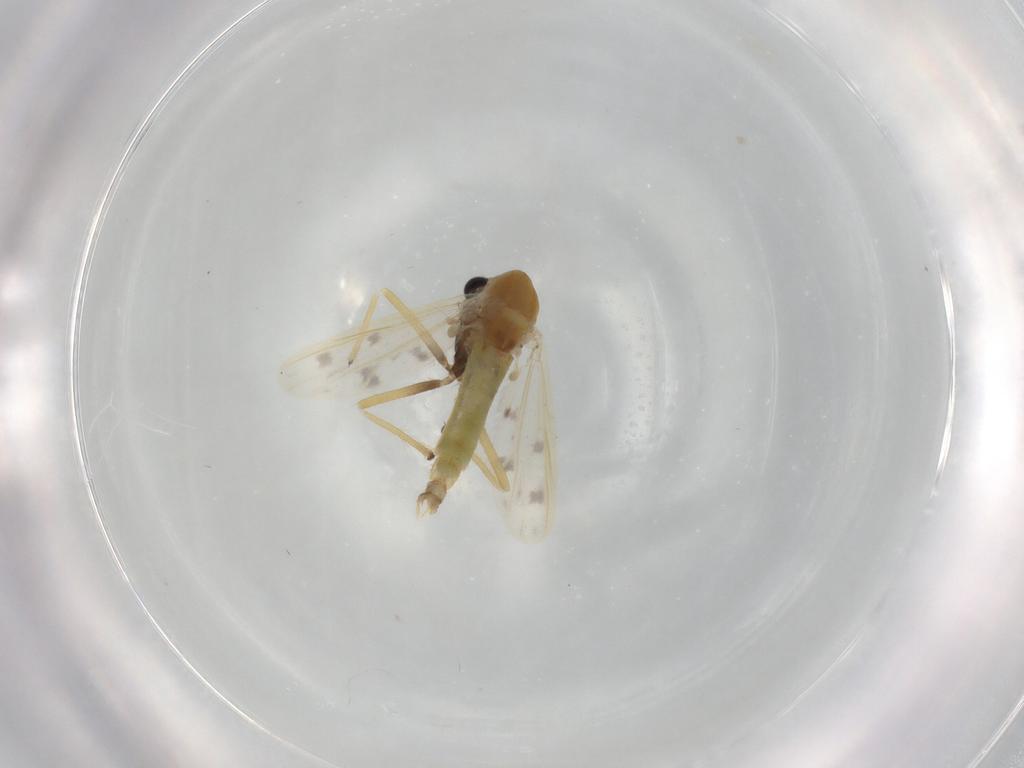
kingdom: Animalia
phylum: Arthropoda
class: Insecta
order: Diptera
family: Chironomidae
